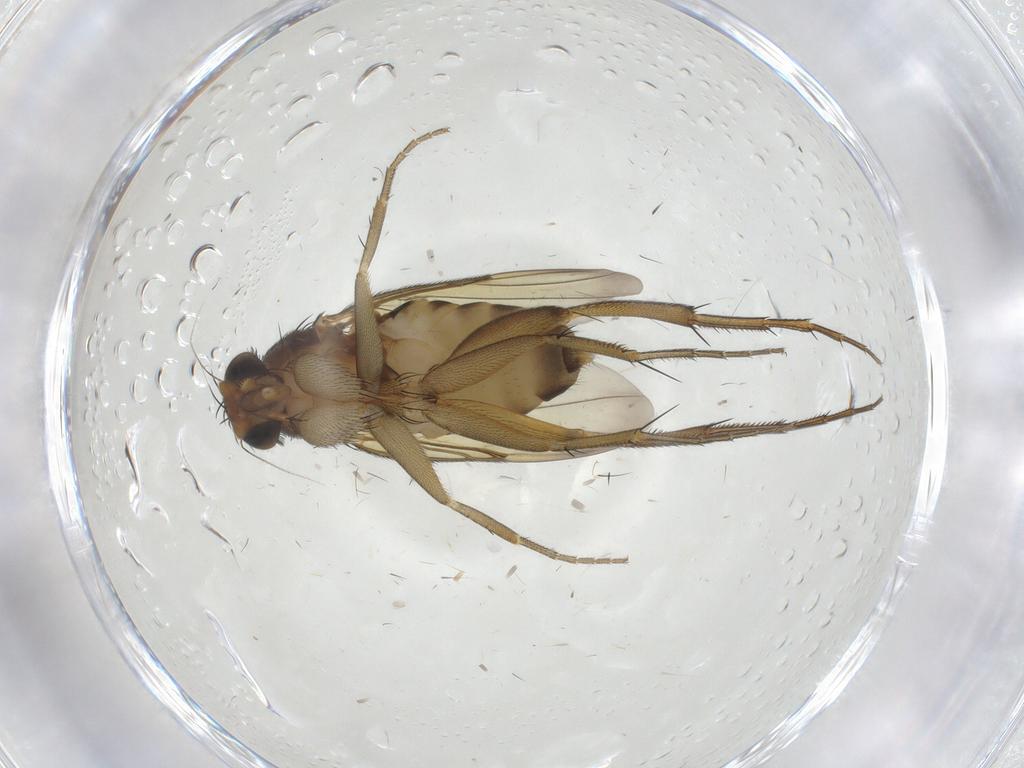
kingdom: Animalia
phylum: Arthropoda
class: Insecta
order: Diptera
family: Phoridae
